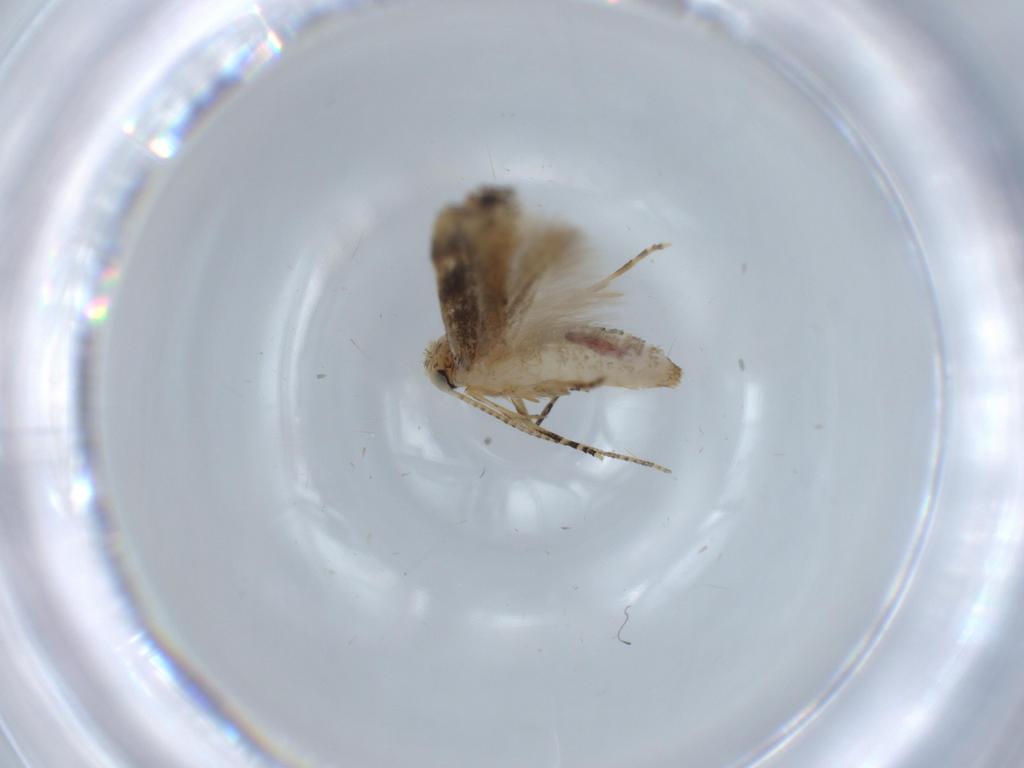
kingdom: Animalia
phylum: Arthropoda
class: Insecta
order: Lepidoptera
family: Bucculatricidae
